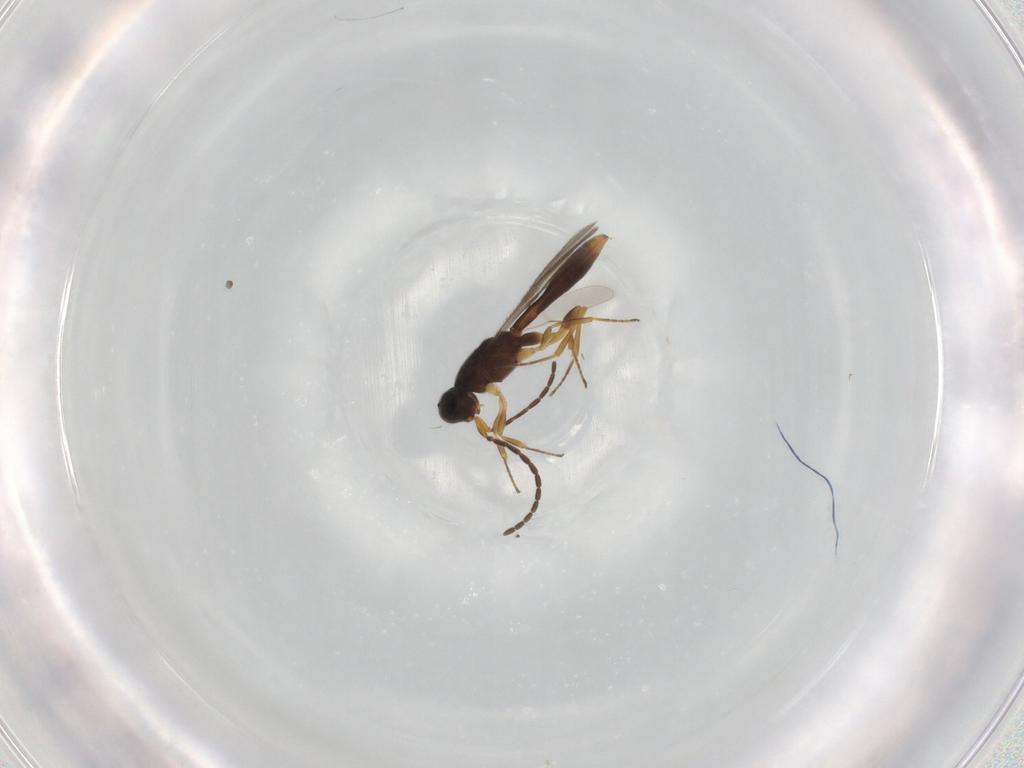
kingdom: Animalia
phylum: Arthropoda
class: Insecta
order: Hymenoptera
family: Scelionidae
